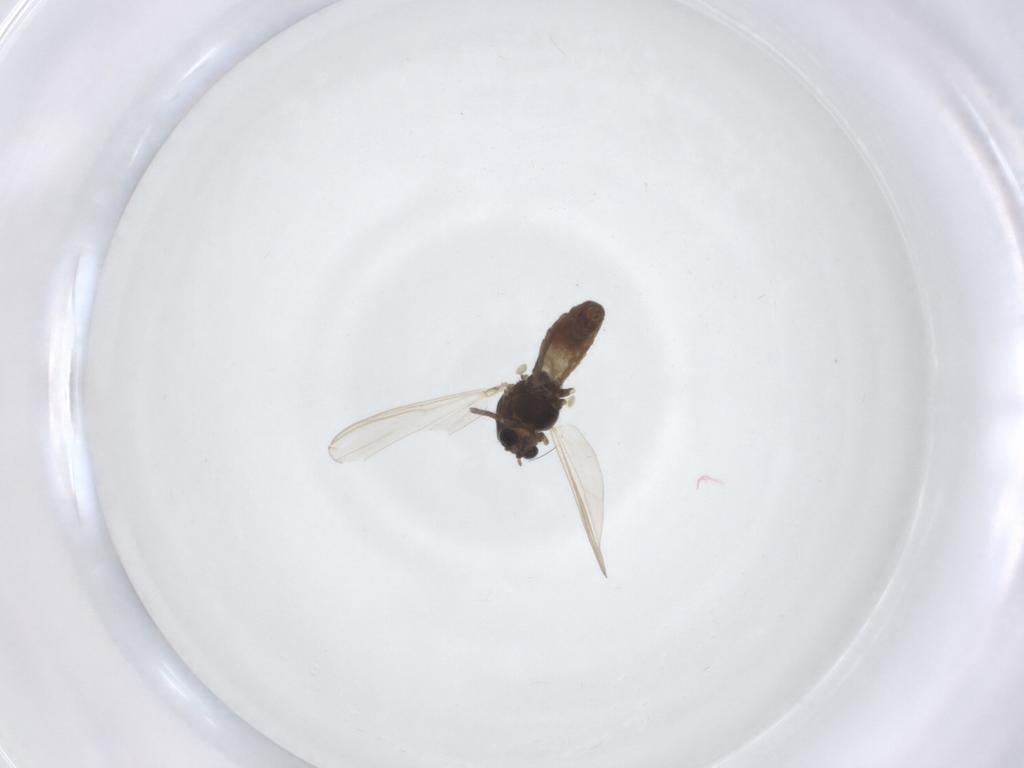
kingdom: Animalia
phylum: Arthropoda
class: Insecta
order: Diptera
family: Chironomidae
